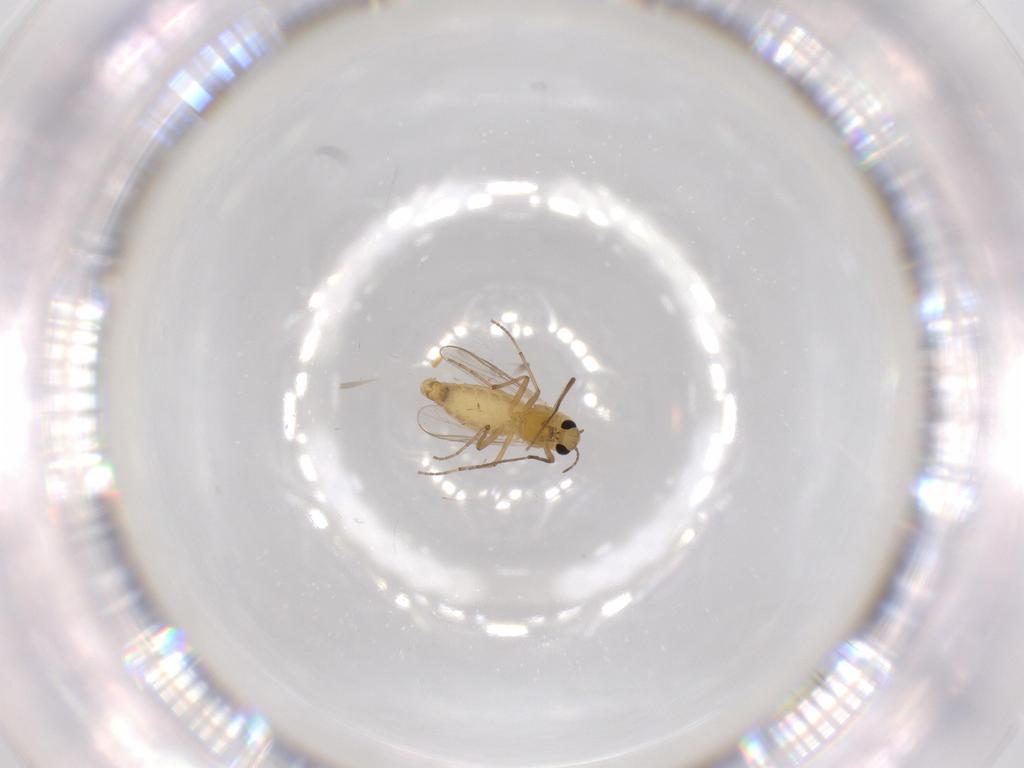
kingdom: Animalia
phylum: Arthropoda
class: Insecta
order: Diptera
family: Chironomidae
